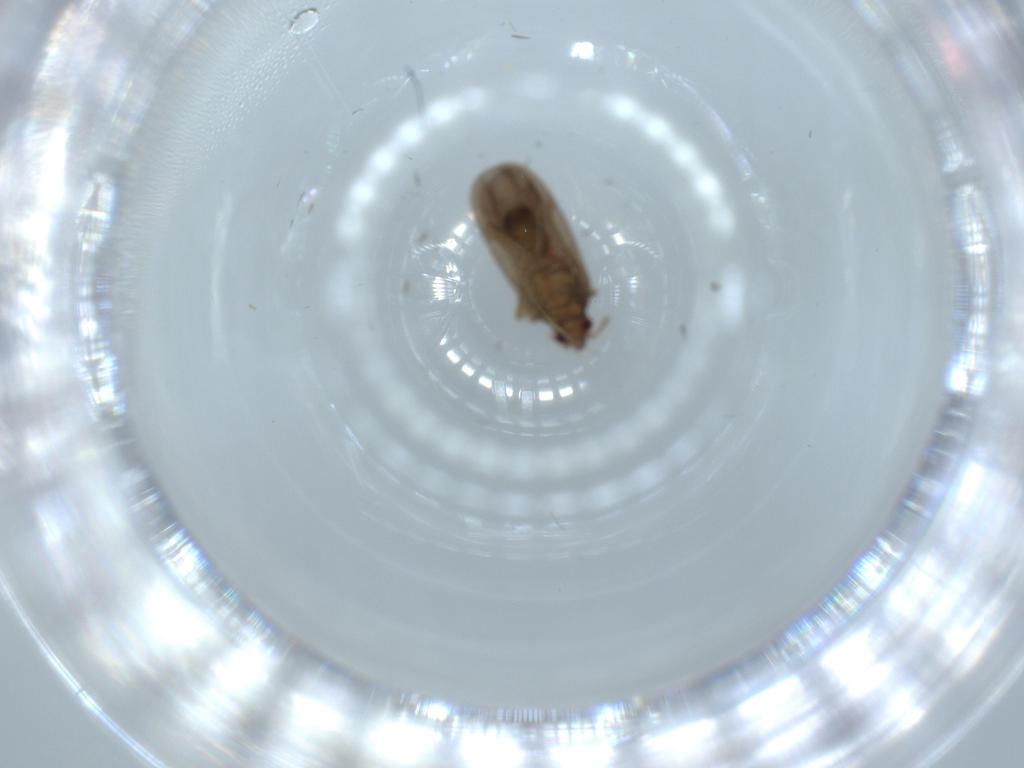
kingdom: Animalia
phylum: Arthropoda
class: Insecta
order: Hemiptera
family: Ceratocombidae
